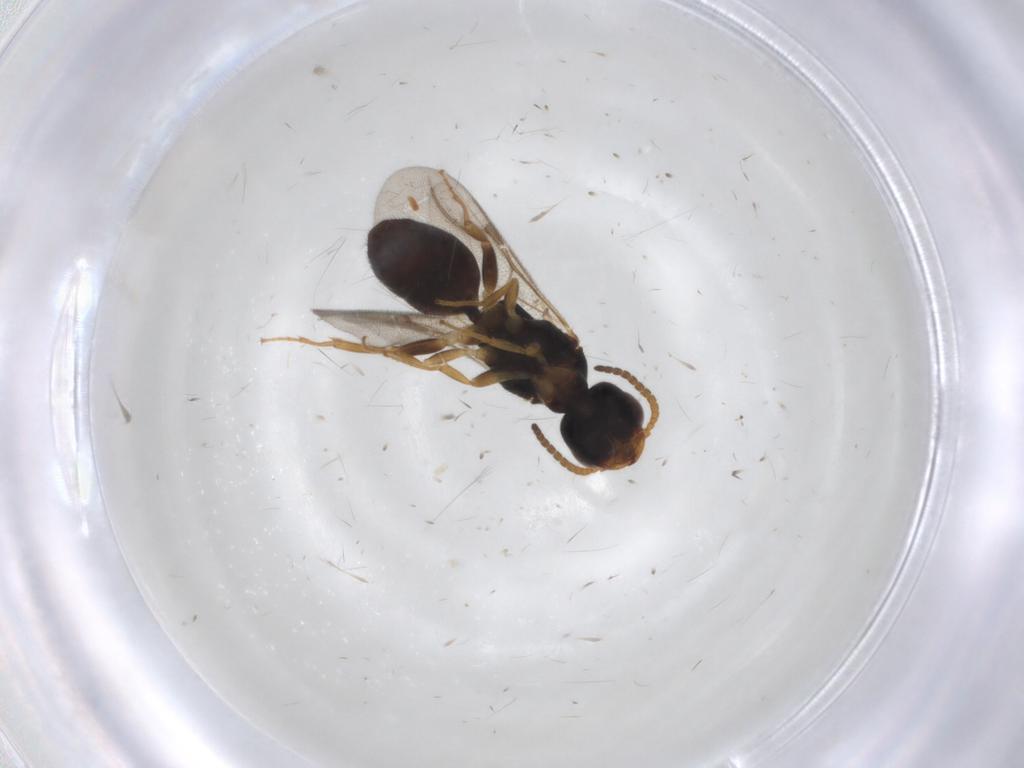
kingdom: Animalia
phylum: Arthropoda
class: Insecta
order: Hymenoptera
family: Bethylidae
